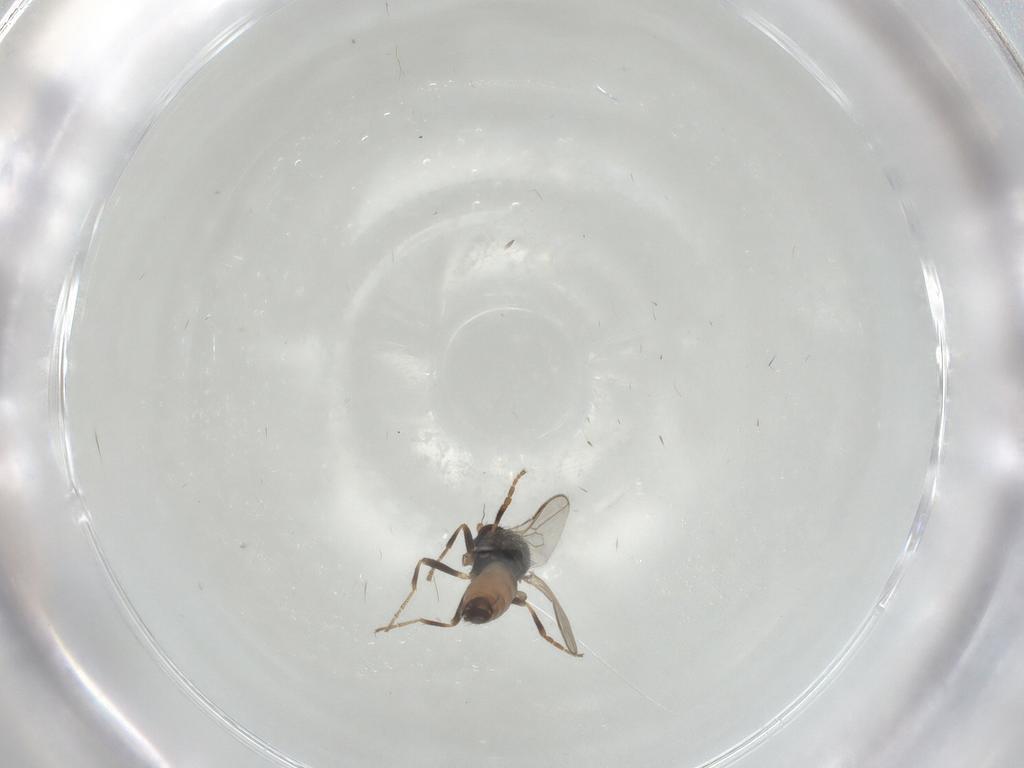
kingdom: Animalia
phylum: Arthropoda
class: Insecta
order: Diptera
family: Sphaeroceridae
